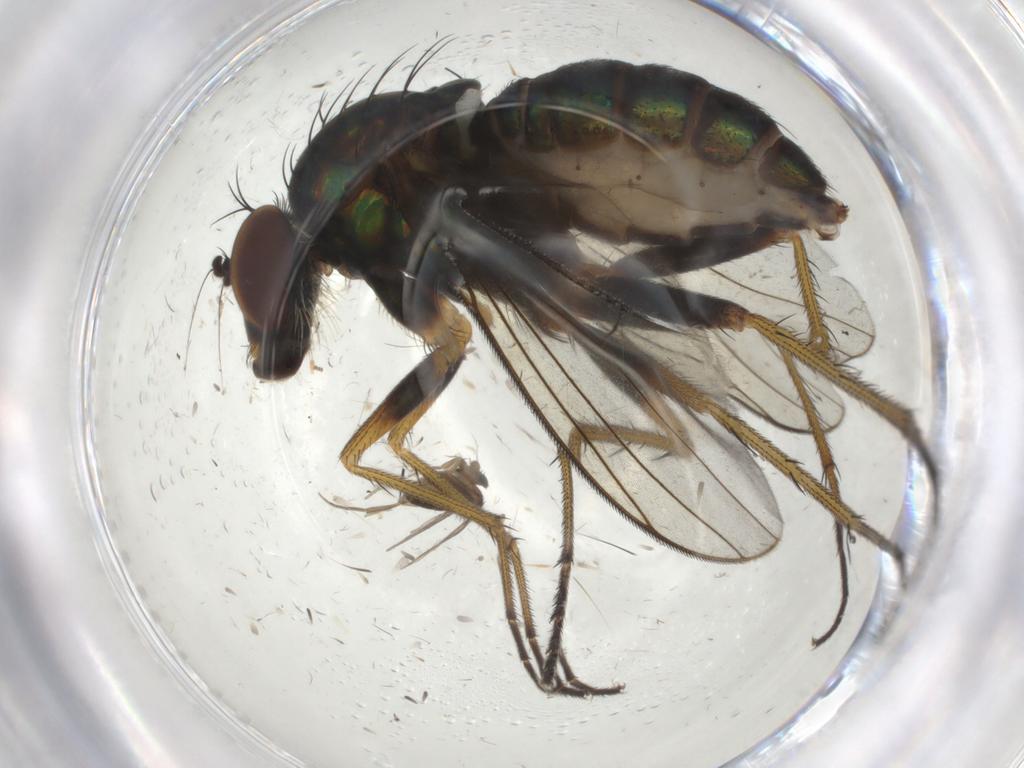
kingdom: Animalia
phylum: Arthropoda
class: Insecta
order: Diptera
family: Dolichopodidae
